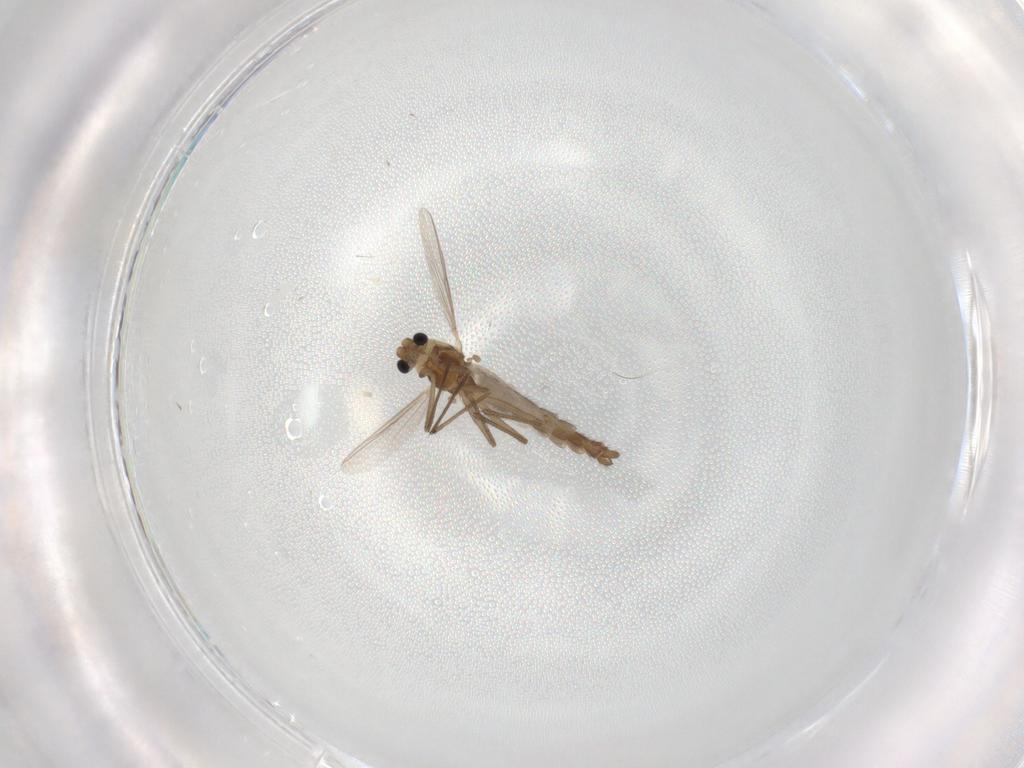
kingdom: Animalia
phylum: Arthropoda
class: Insecta
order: Diptera
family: Chironomidae
